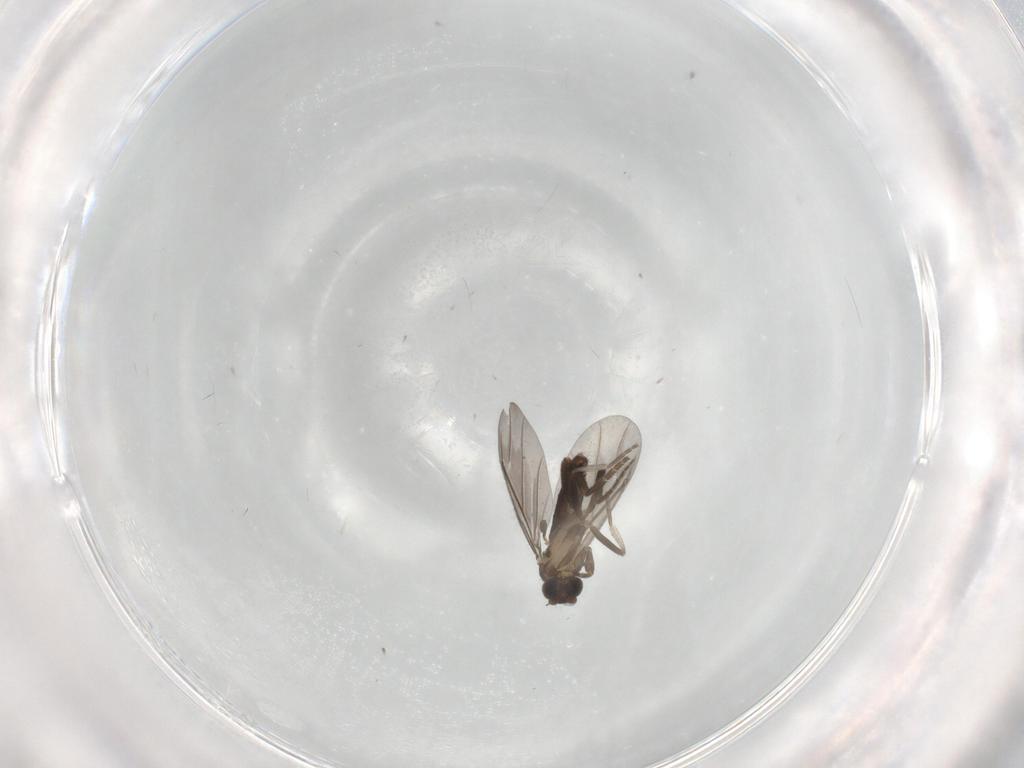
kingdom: Animalia
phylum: Arthropoda
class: Insecta
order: Diptera
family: Phoridae
